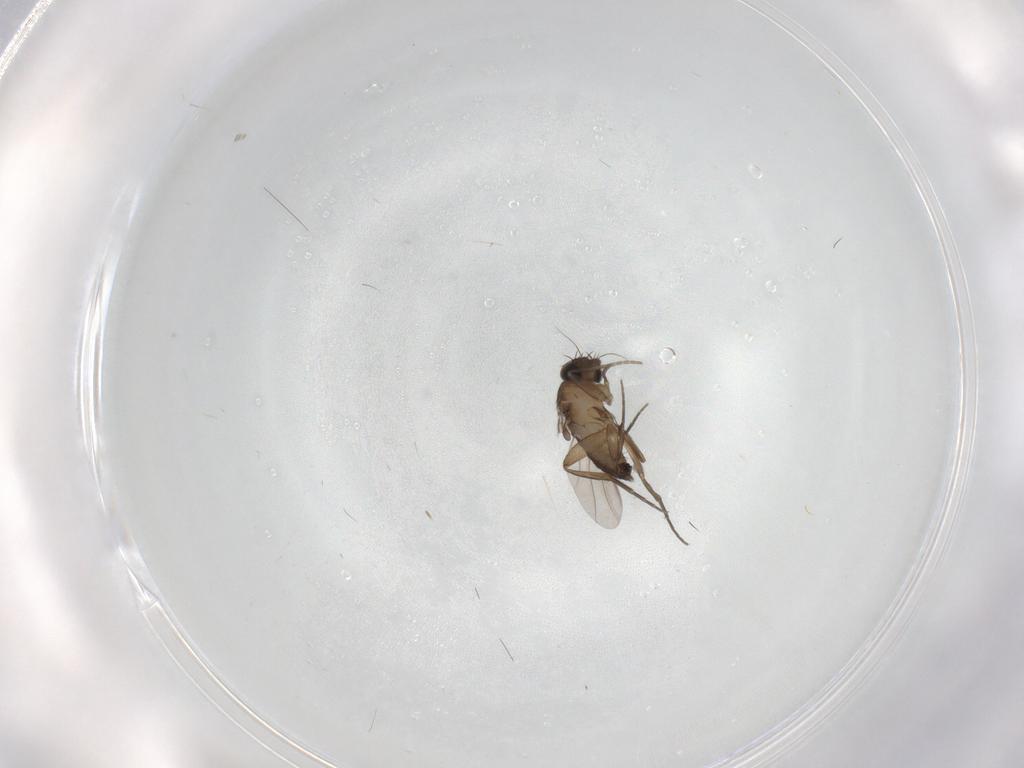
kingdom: Animalia
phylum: Arthropoda
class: Insecta
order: Diptera
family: Phoridae
